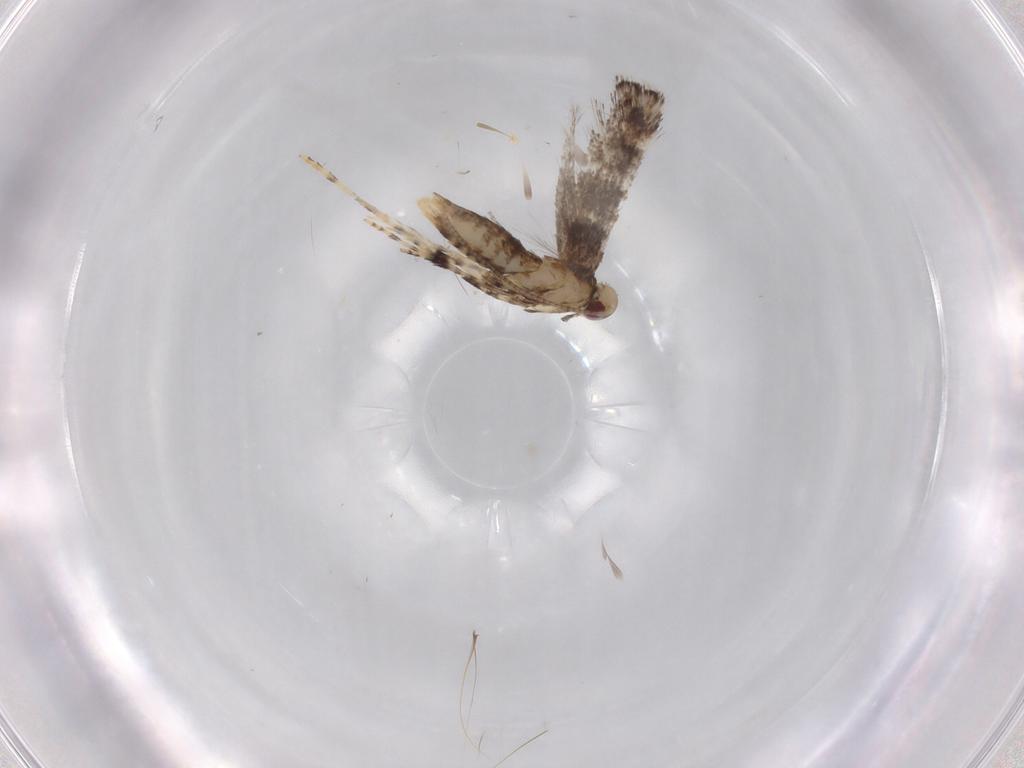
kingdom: Animalia
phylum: Arthropoda
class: Insecta
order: Lepidoptera
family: Gracillariidae
